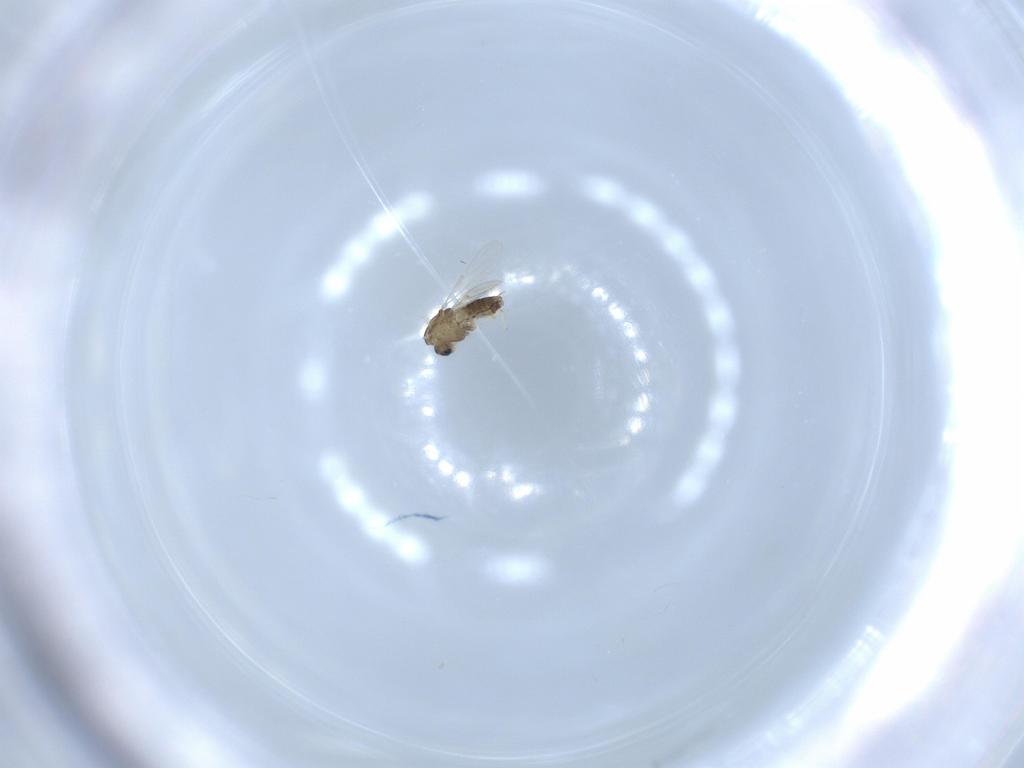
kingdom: Animalia
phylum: Arthropoda
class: Insecta
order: Diptera
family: Chironomidae
